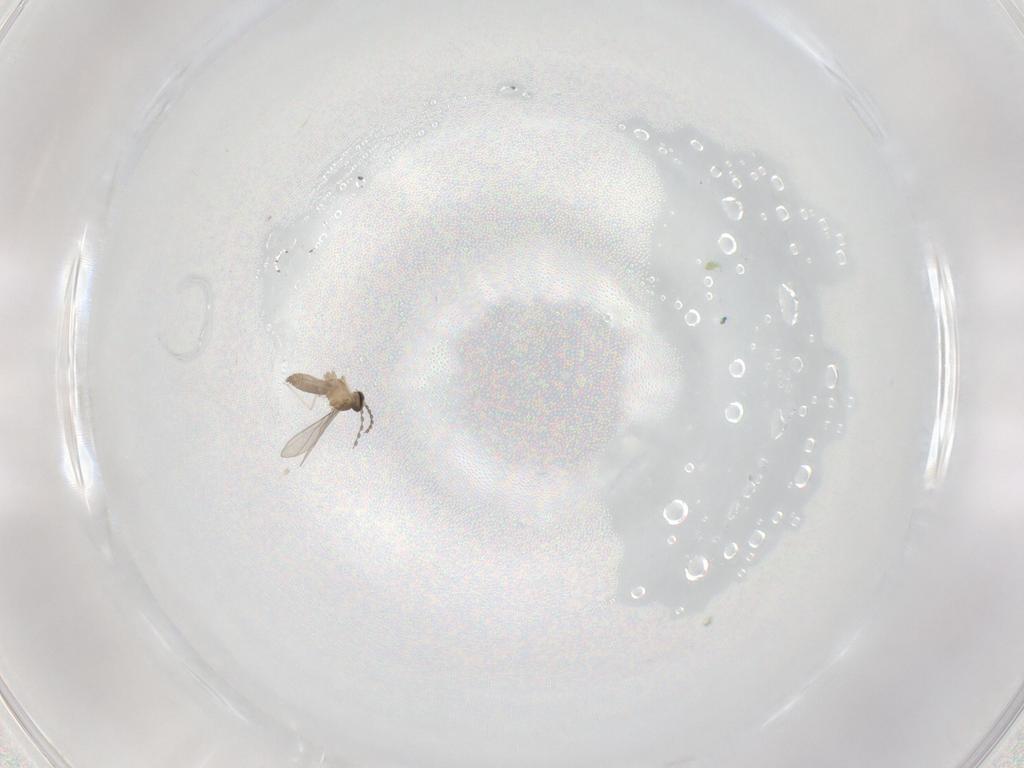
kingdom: Animalia
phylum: Arthropoda
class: Insecta
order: Diptera
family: Cecidomyiidae
